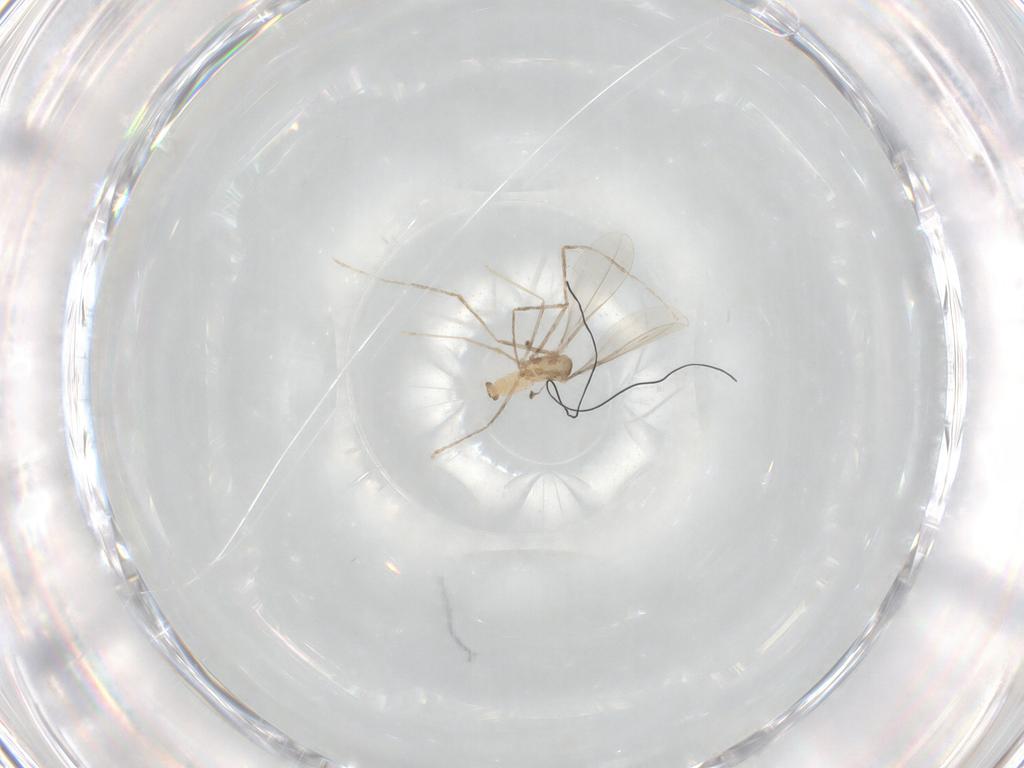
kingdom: Animalia
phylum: Arthropoda
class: Insecta
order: Diptera
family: Cecidomyiidae
